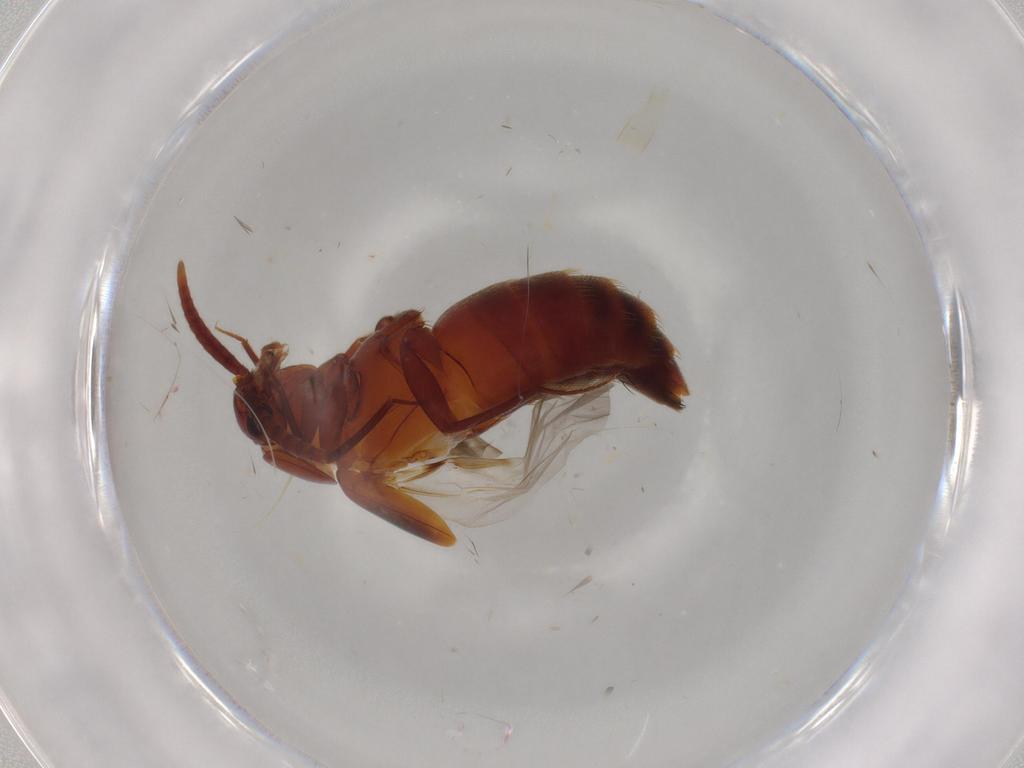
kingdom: Animalia
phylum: Arthropoda
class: Insecta
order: Coleoptera
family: Staphylinidae
